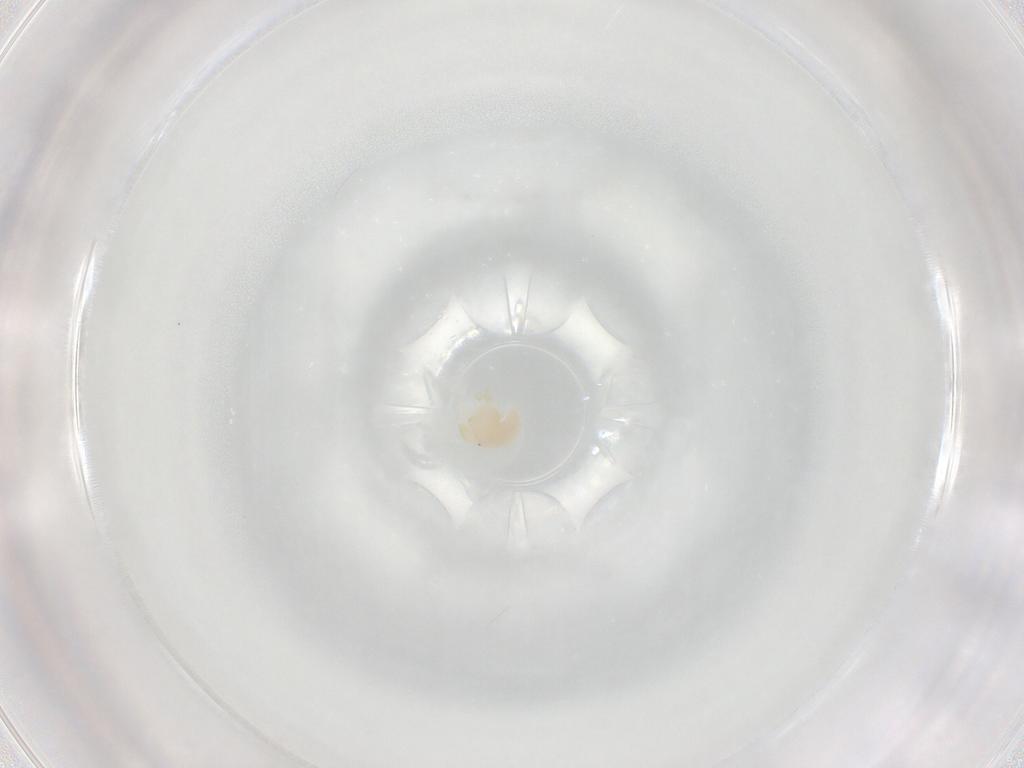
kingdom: Animalia
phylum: Arthropoda
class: Arachnida
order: Trombidiformes
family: Sperchontidae
